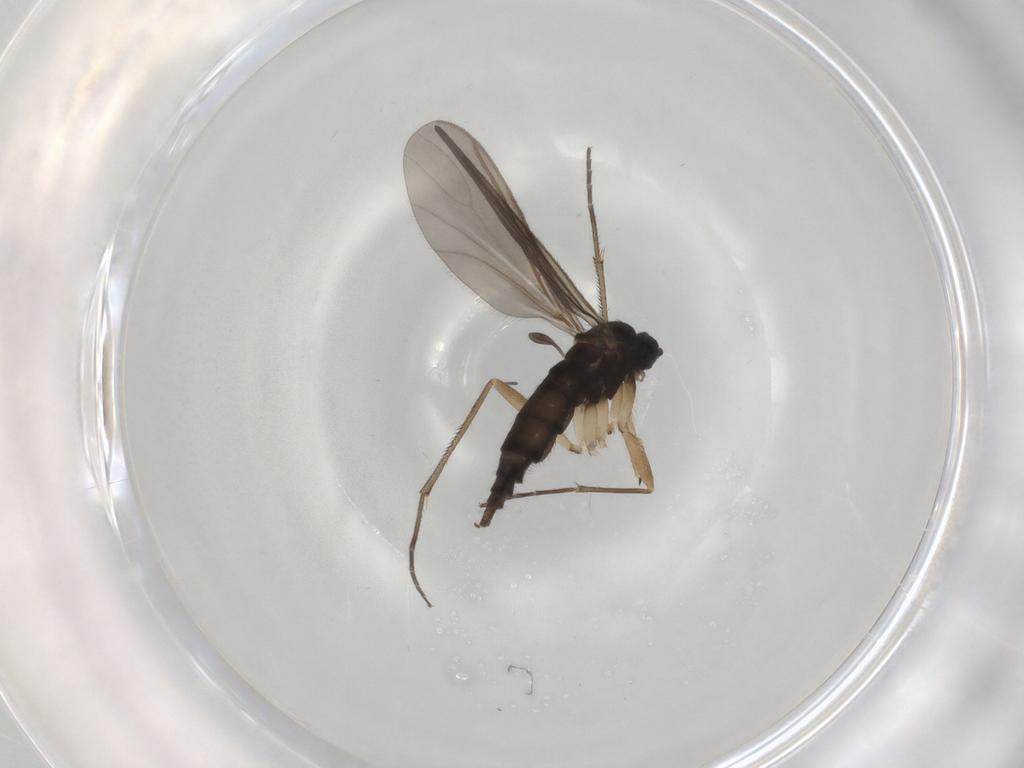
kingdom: Animalia
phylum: Arthropoda
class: Insecta
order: Diptera
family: Sciaridae
